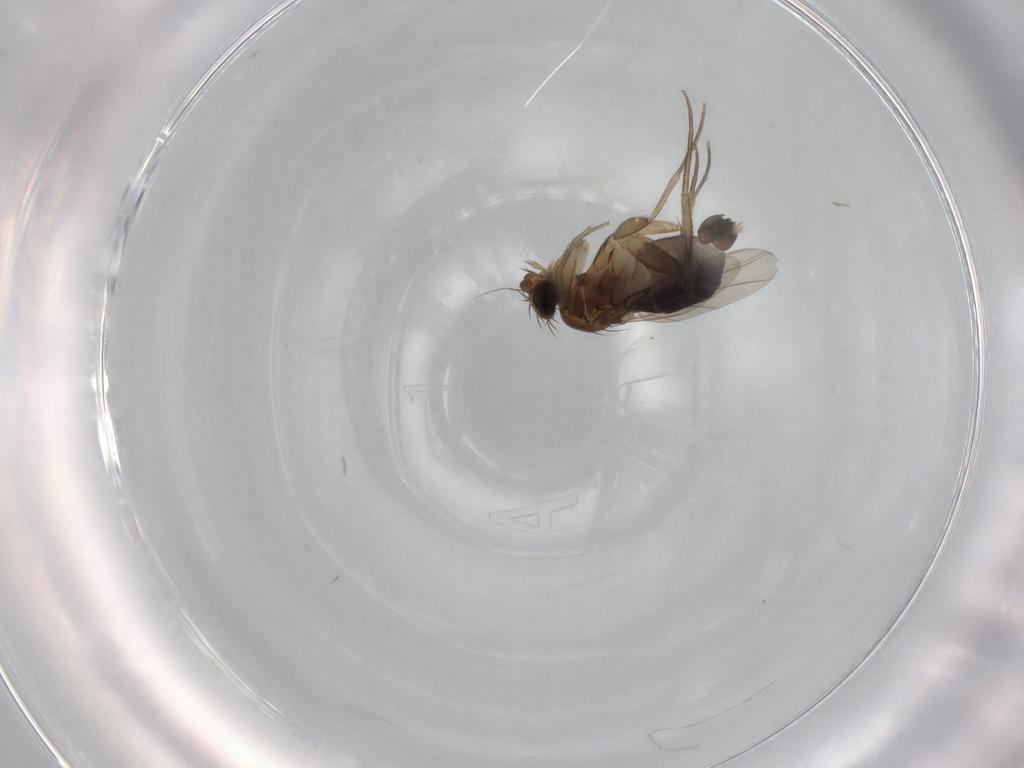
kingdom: Animalia
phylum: Arthropoda
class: Insecta
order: Diptera
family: Phoridae
